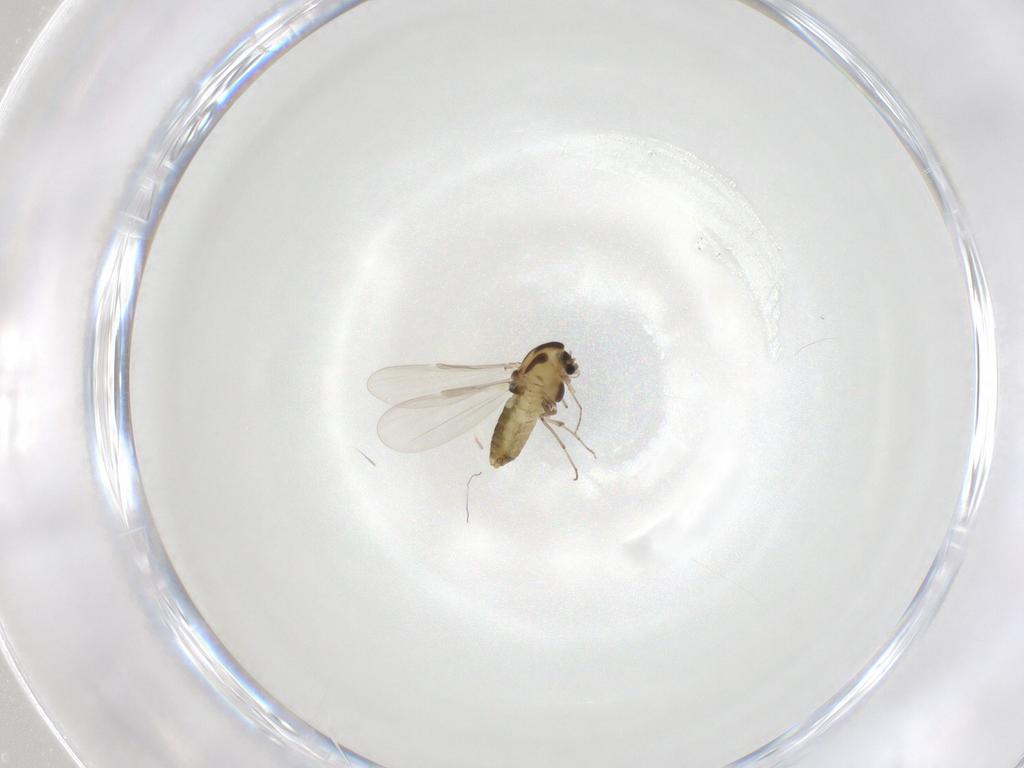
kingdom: Animalia
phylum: Arthropoda
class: Insecta
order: Diptera
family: Chironomidae
